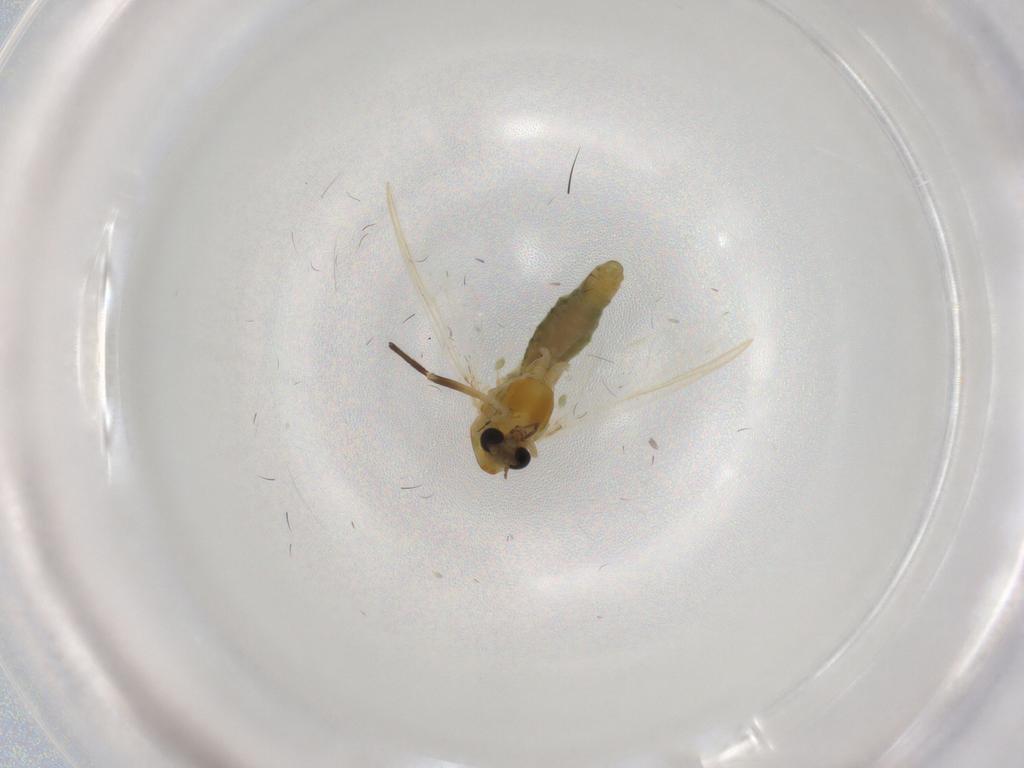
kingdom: Animalia
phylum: Arthropoda
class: Insecta
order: Diptera
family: Chironomidae
